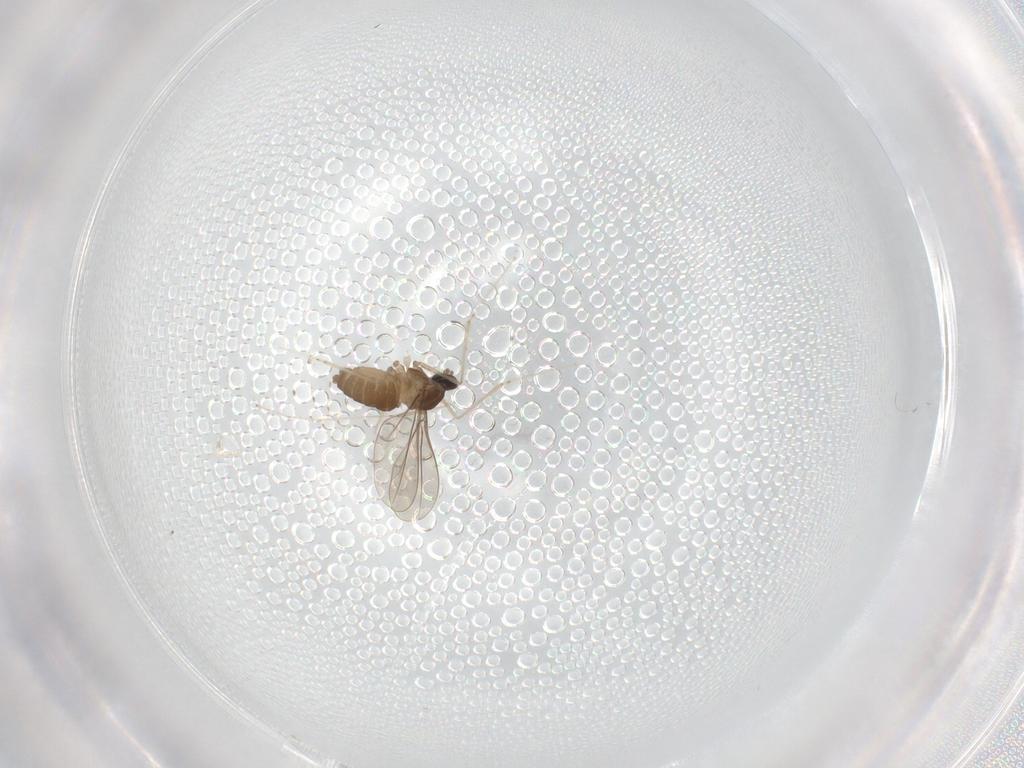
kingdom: Animalia
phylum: Arthropoda
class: Insecta
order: Diptera
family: Cecidomyiidae
